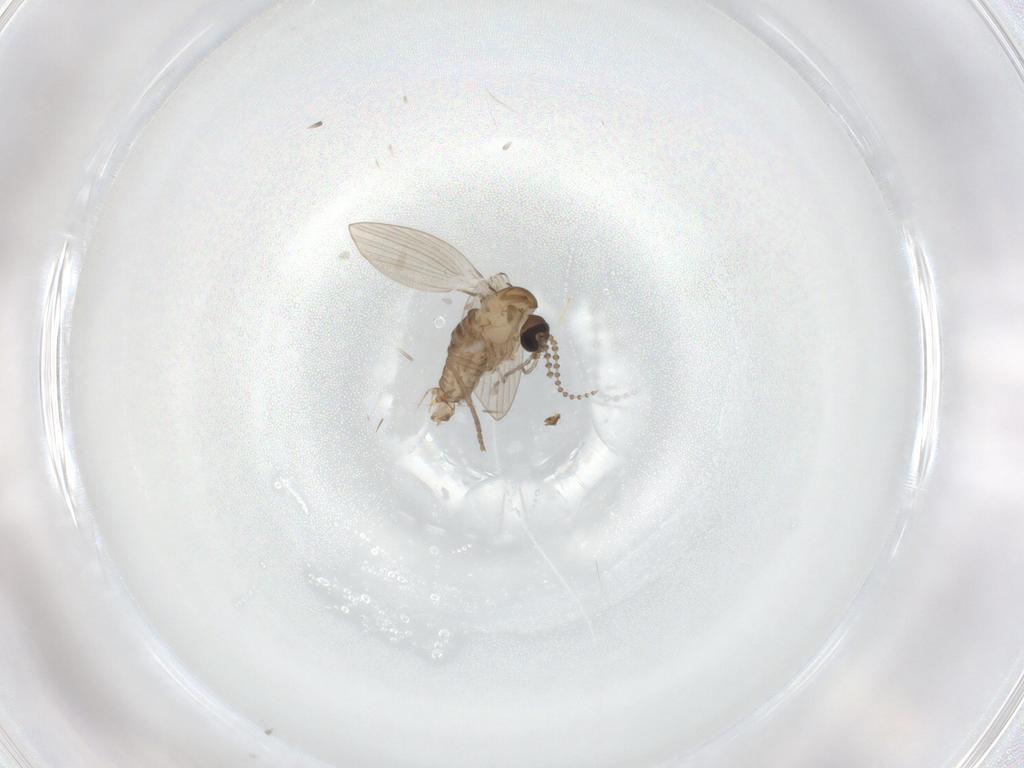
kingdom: Animalia
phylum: Arthropoda
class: Insecta
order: Diptera
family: Psychodidae
